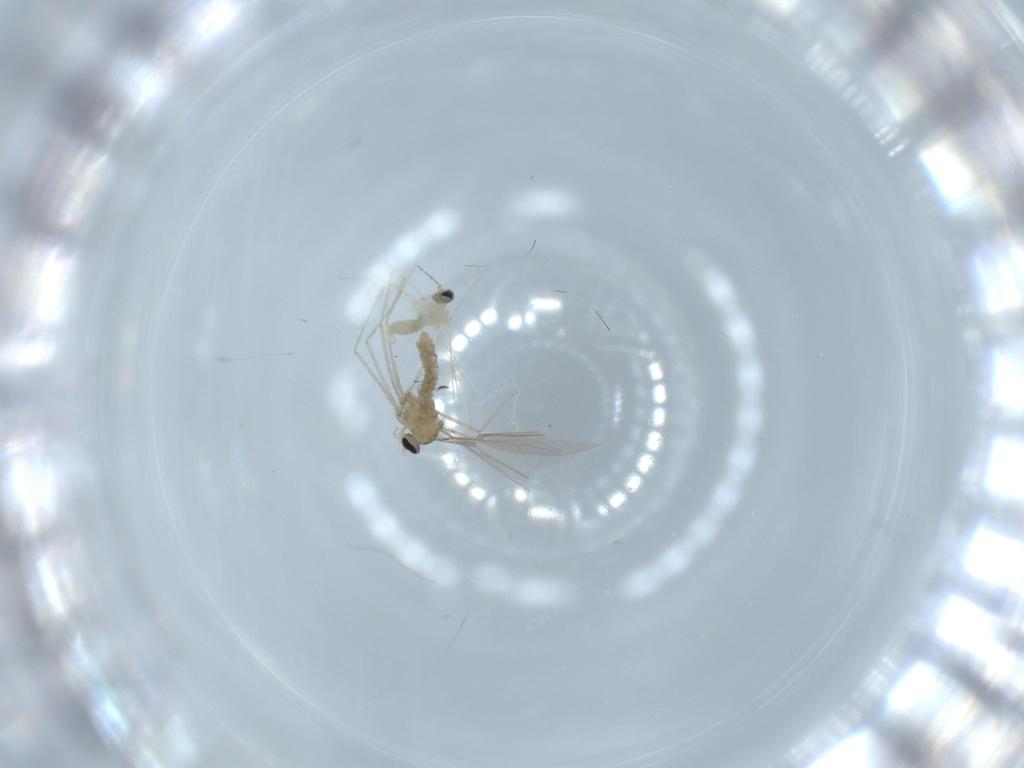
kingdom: Animalia
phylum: Arthropoda
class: Insecta
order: Diptera
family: Cecidomyiidae
